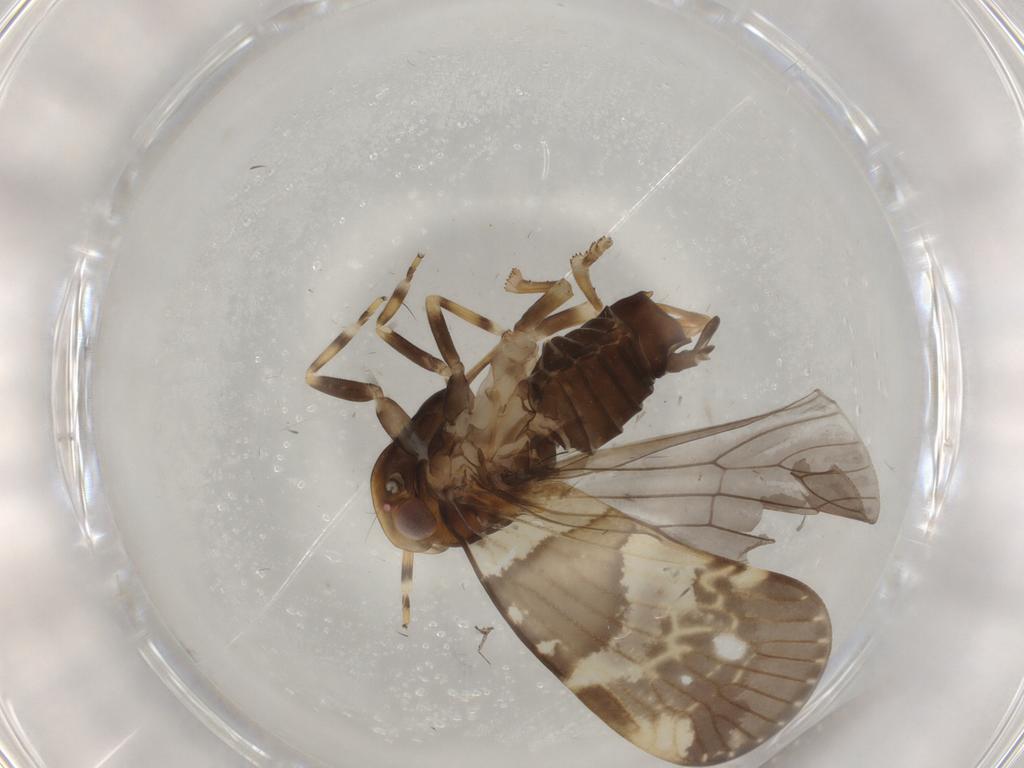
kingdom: Animalia
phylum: Arthropoda
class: Insecta
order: Hemiptera
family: Cixiidae
